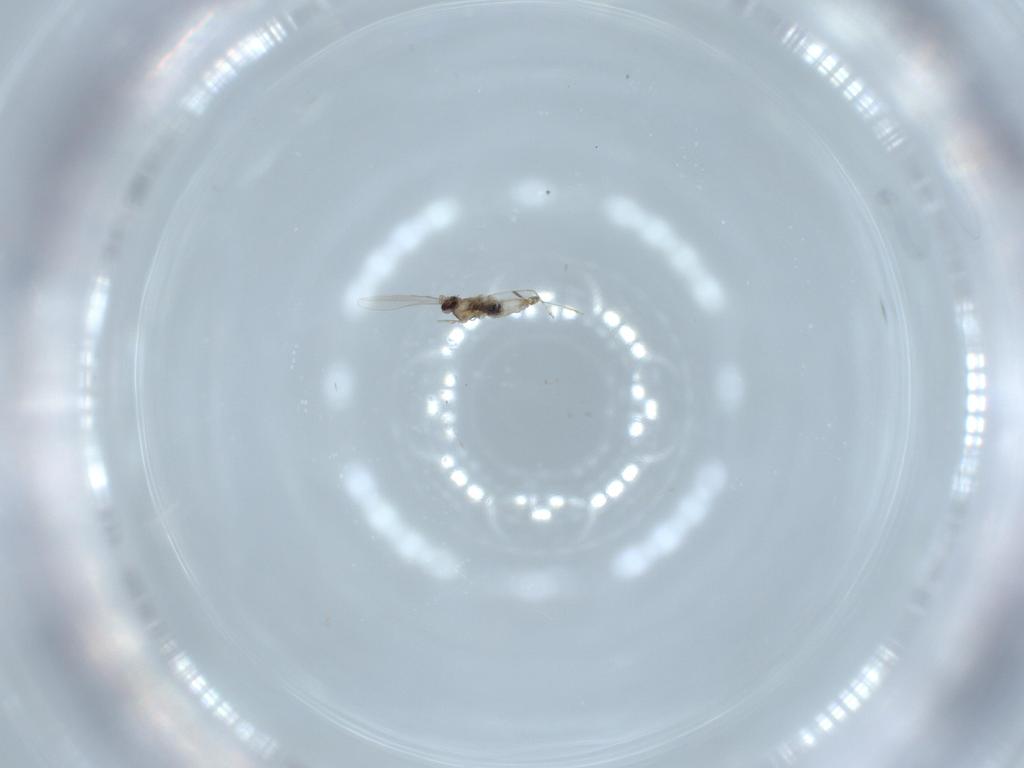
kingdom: Animalia
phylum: Arthropoda
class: Insecta
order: Diptera
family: Cecidomyiidae
